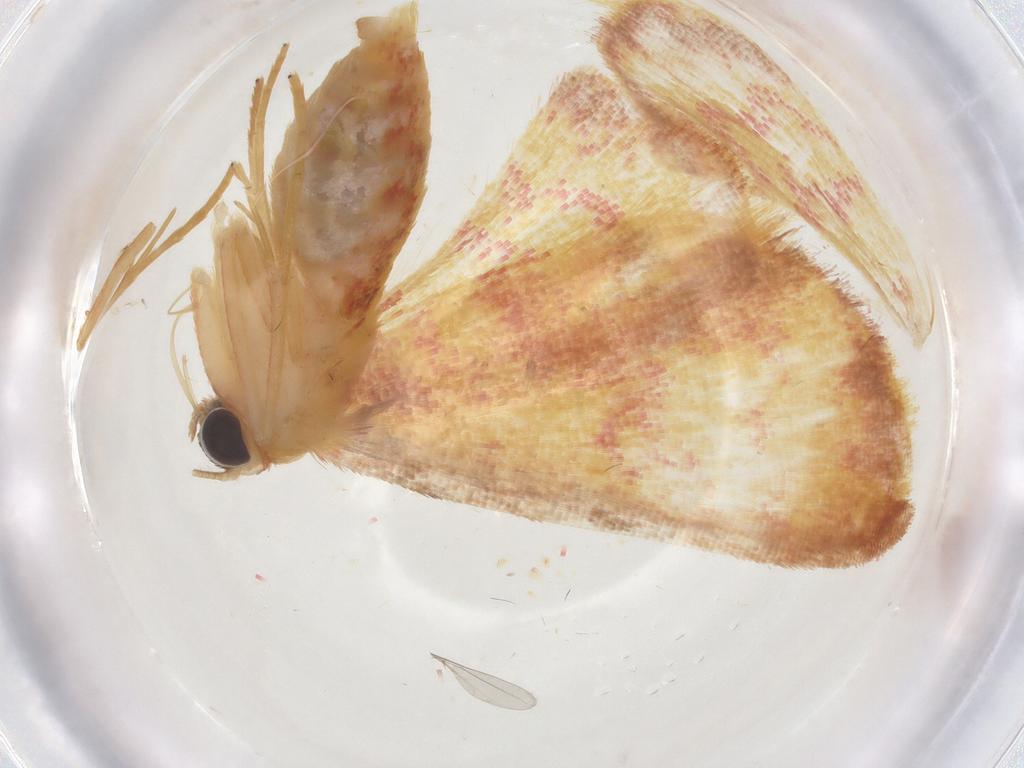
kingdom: Animalia
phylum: Arthropoda
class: Insecta
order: Lepidoptera
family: Geometridae
